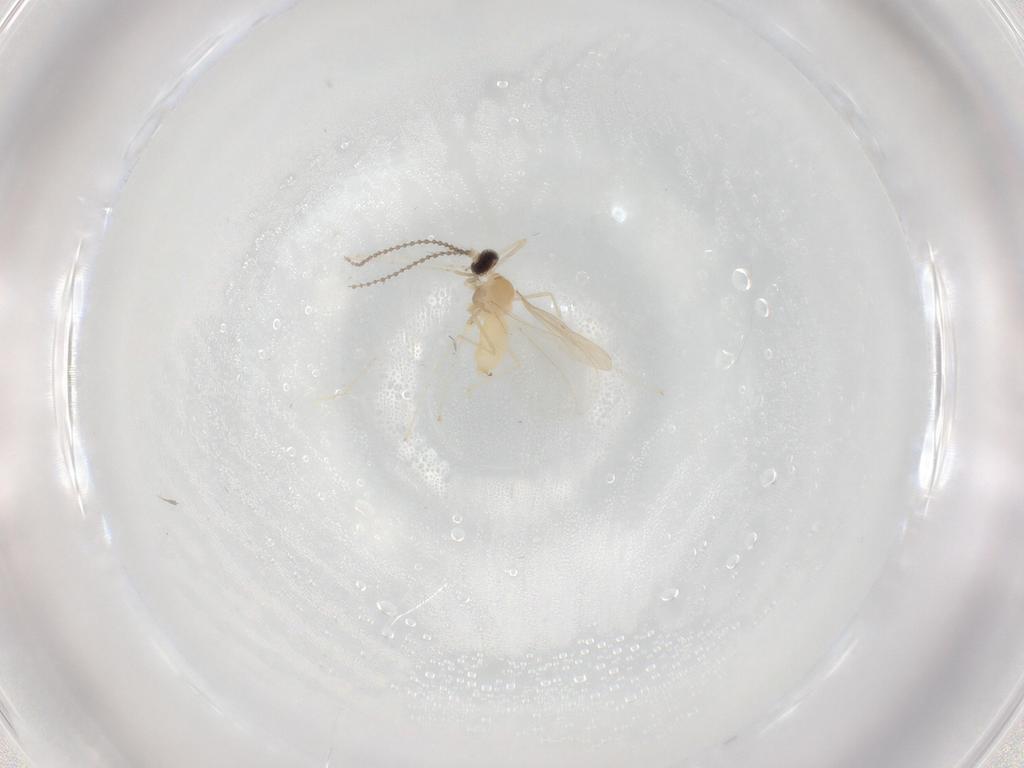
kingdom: Animalia
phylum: Arthropoda
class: Insecta
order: Diptera
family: Cecidomyiidae
